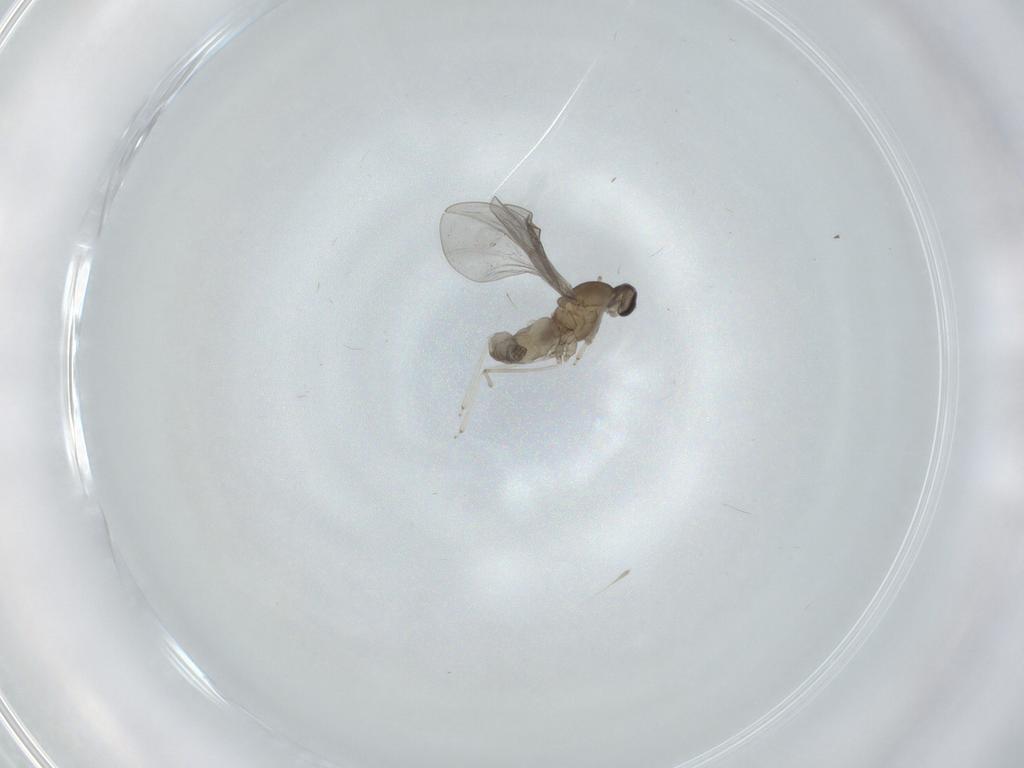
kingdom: Animalia
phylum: Arthropoda
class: Insecta
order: Diptera
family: Cecidomyiidae
